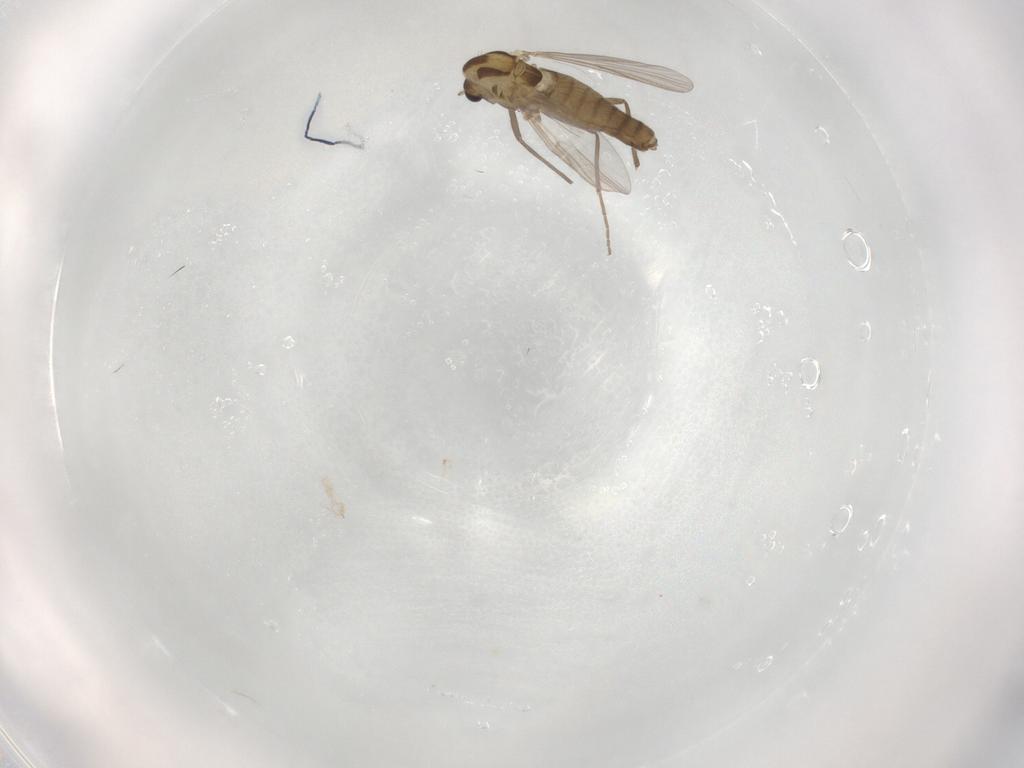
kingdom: Animalia
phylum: Arthropoda
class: Insecta
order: Diptera
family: Chironomidae
